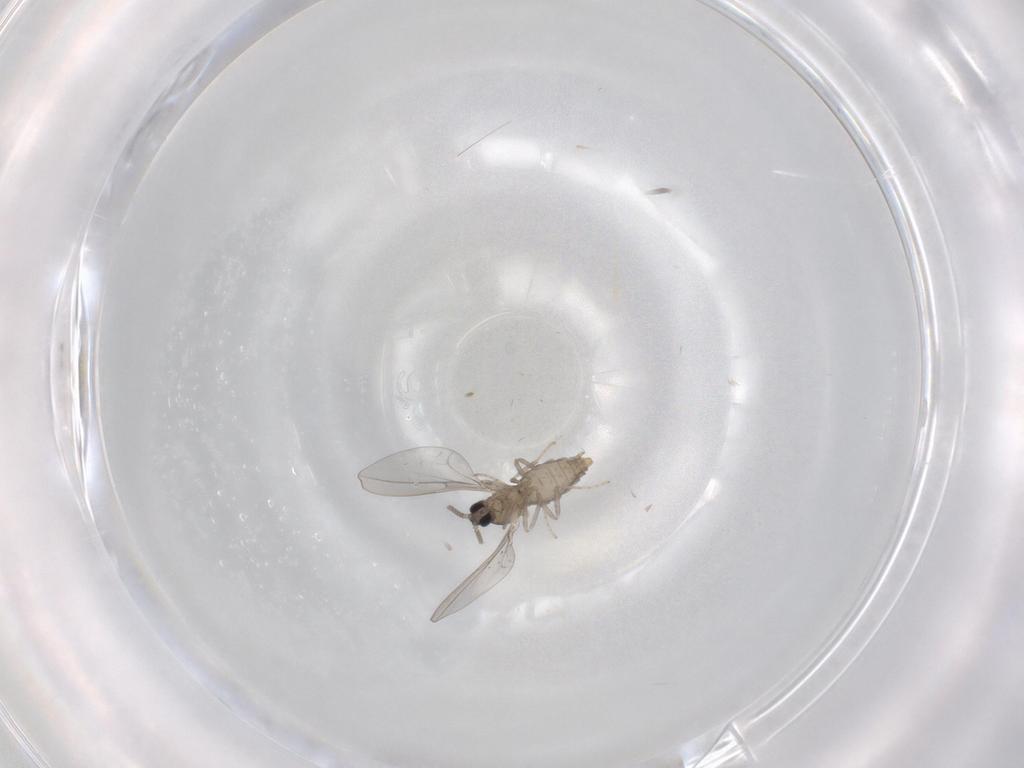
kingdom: Animalia
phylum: Arthropoda
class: Insecta
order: Diptera
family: Cecidomyiidae
